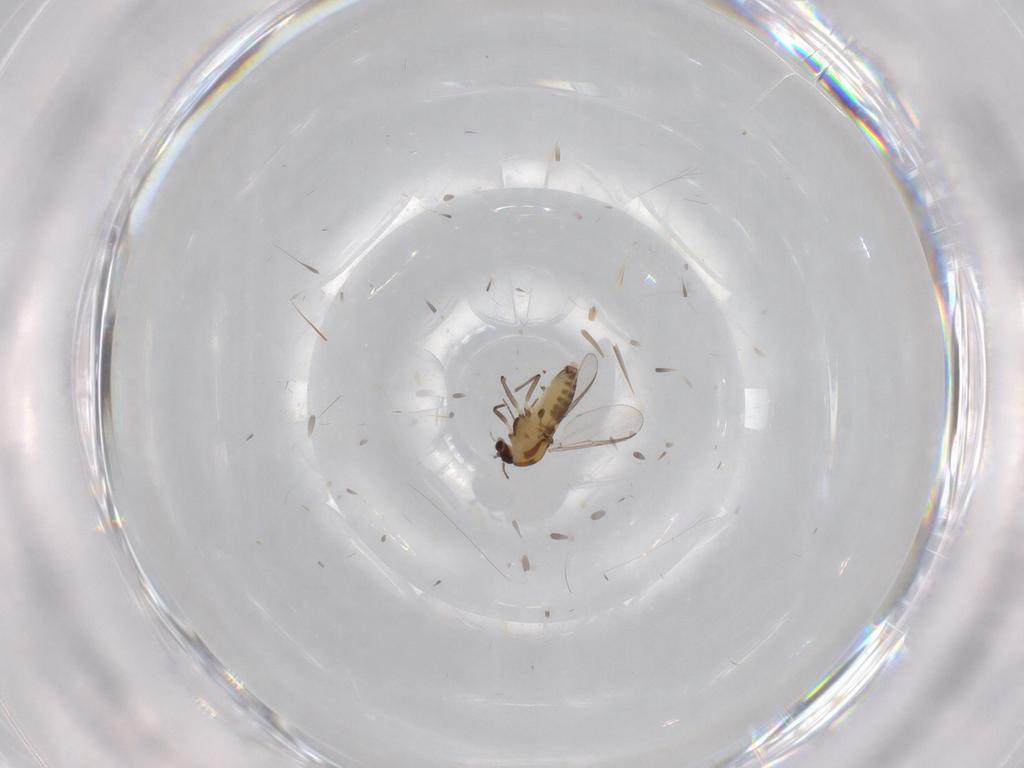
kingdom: Animalia
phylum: Arthropoda
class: Insecta
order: Diptera
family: Chironomidae
